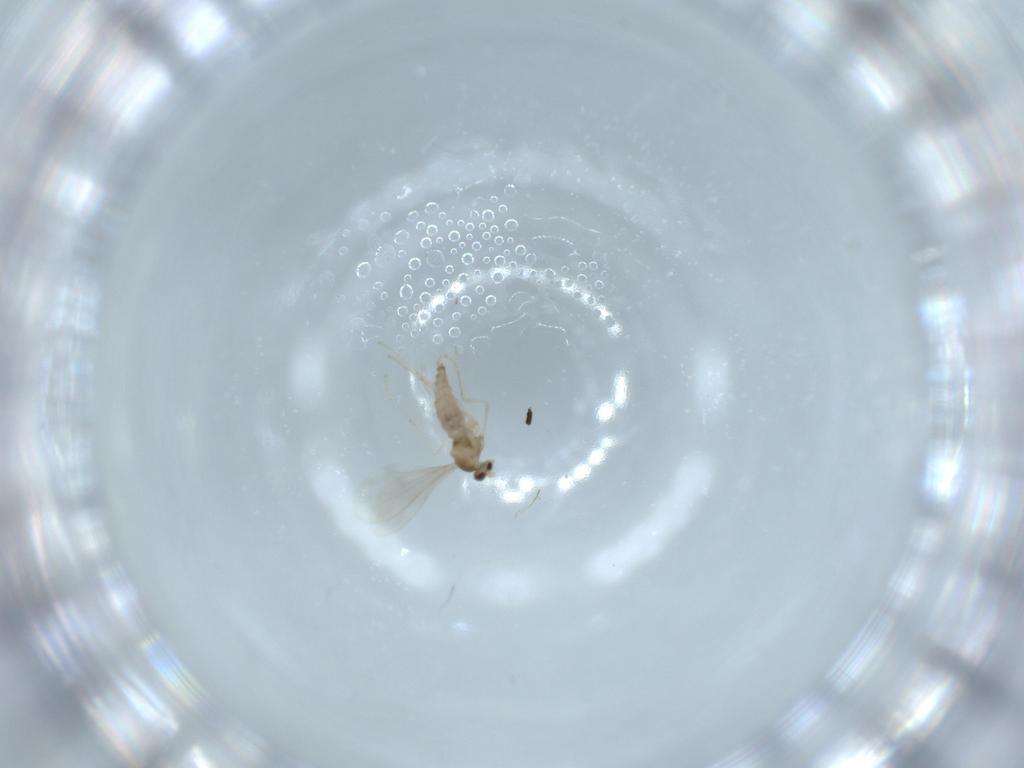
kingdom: Animalia
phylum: Arthropoda
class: Insecta
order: Diptera
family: Cecidomyiidae
